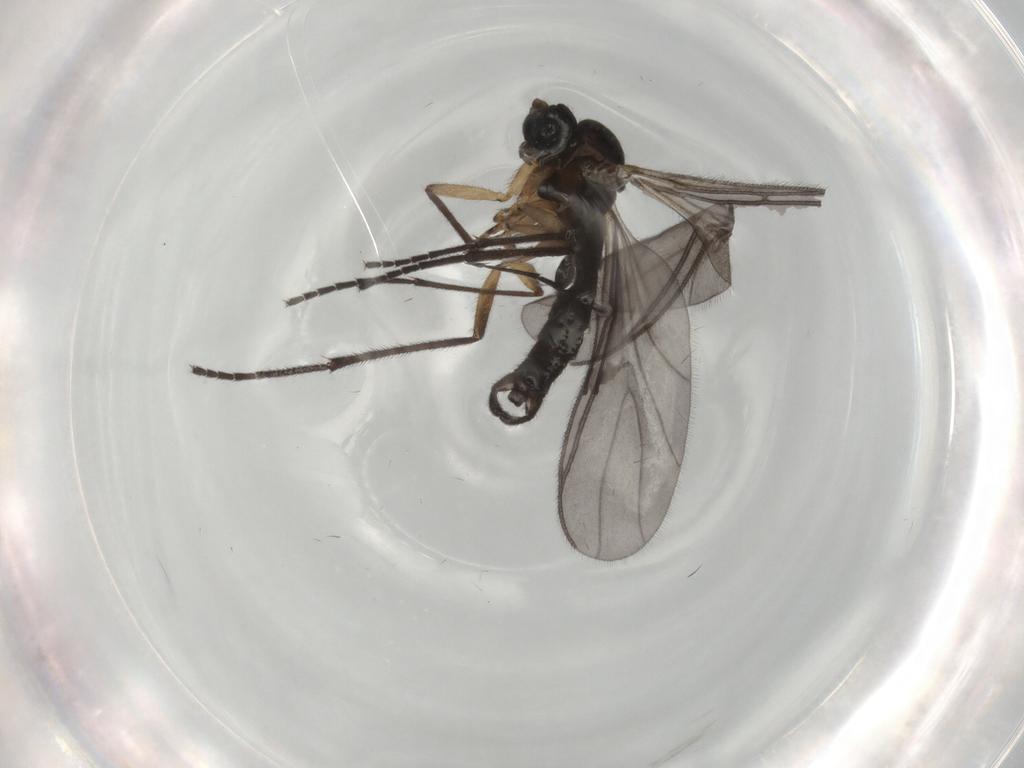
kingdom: Animalia
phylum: Arthropoda
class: Insecta
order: Diptera
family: Sciaridae
